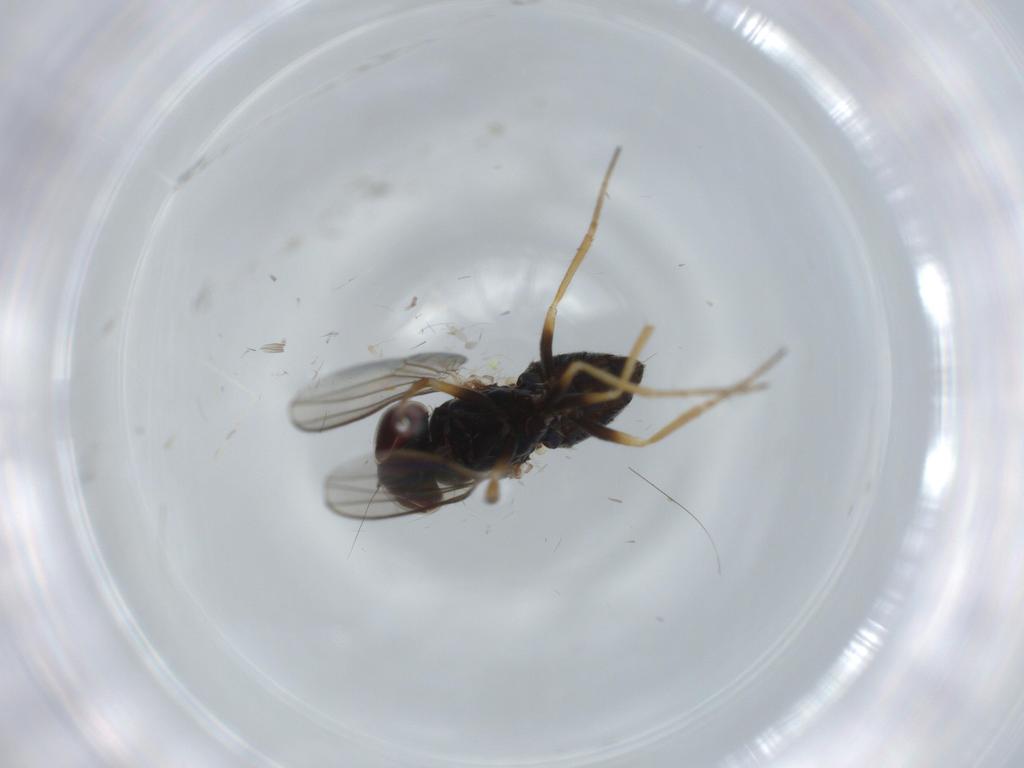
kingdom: Animalia
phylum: Arthropoda
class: Insecta
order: Diptera
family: Dolichopodidae
